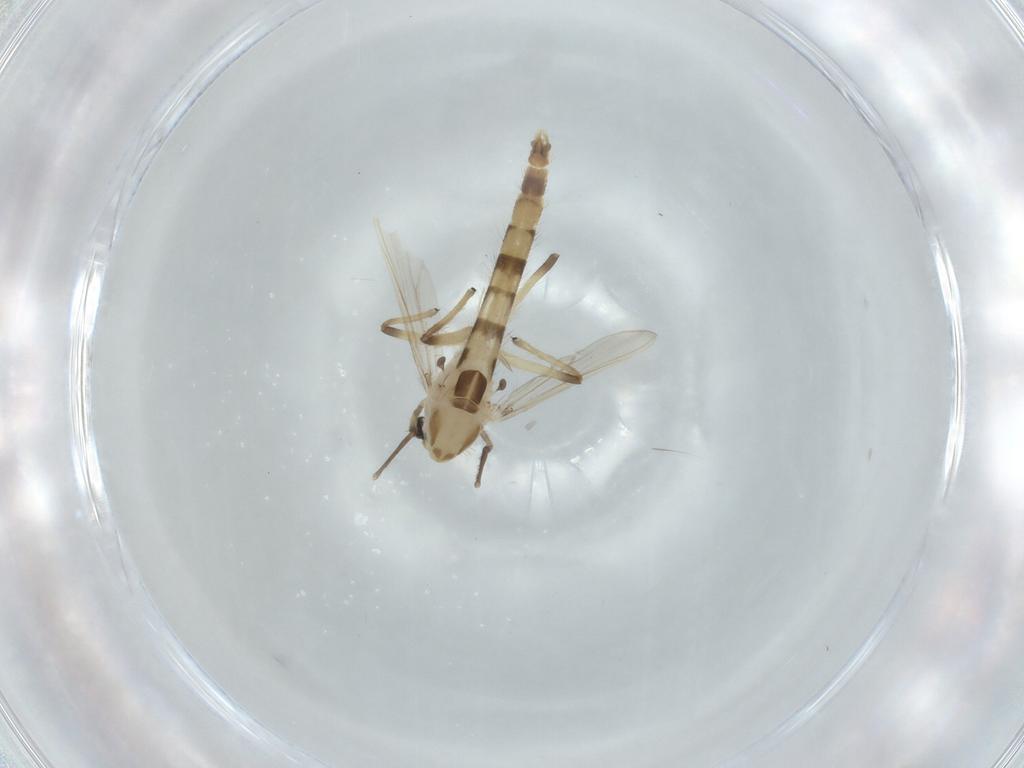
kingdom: Animalia
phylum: Arthropoda
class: Insecta
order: Diptera
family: Chironomidae
